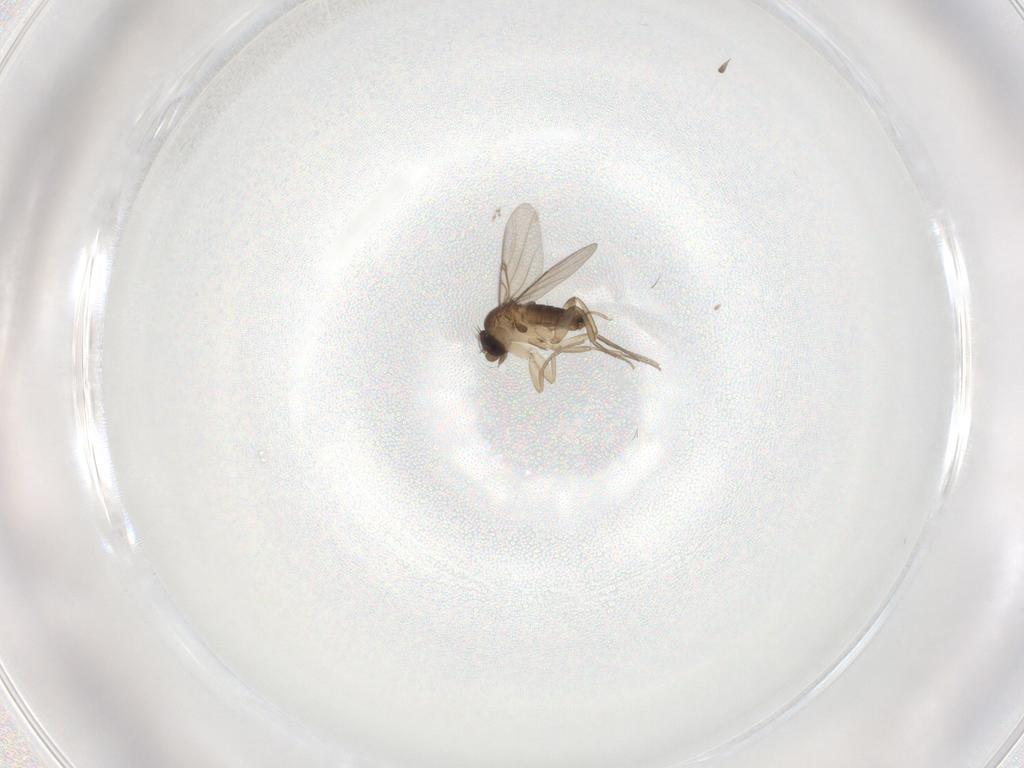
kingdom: Animalia
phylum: Arthropoda
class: Insecta
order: Diptera
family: Phoridae
